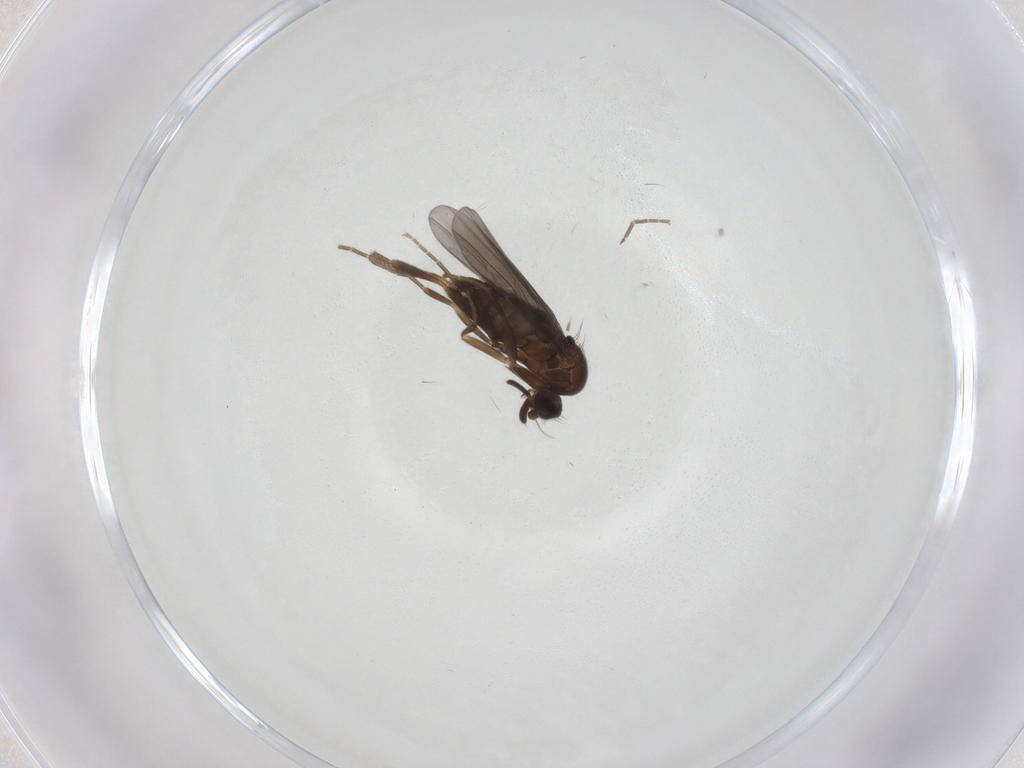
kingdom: Animalia
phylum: Arthropoda
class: Insecta
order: Diptera
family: Phoridae
